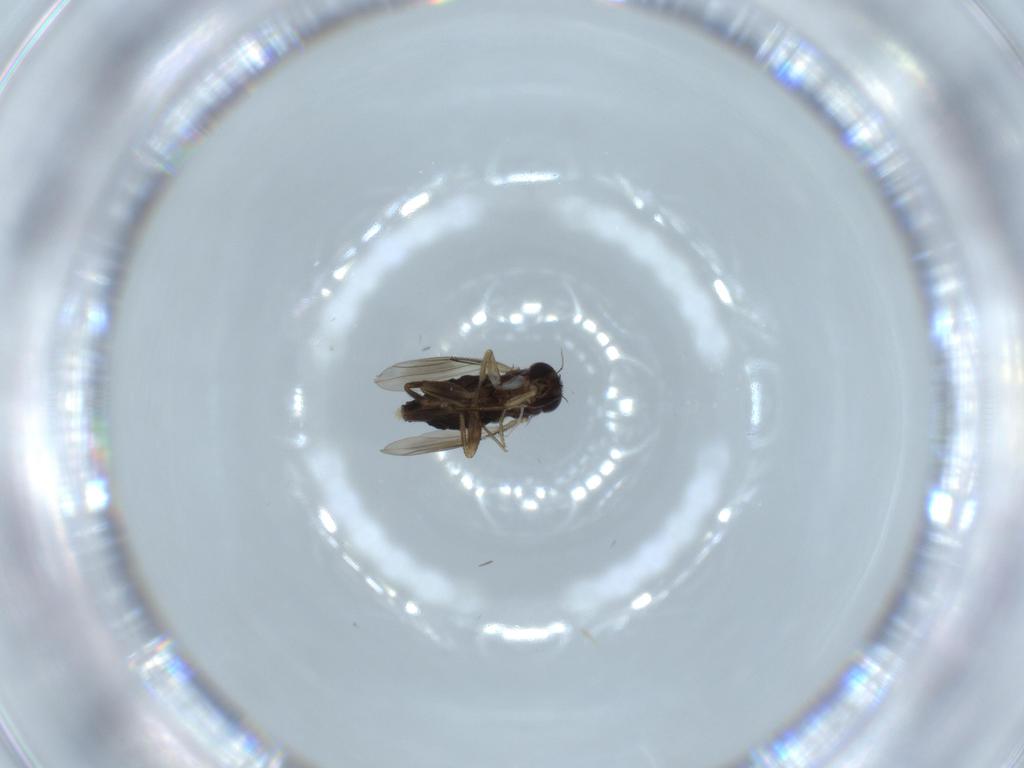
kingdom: Animalia
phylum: Arthropoda
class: Insecta
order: Diptera
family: Phoridae
